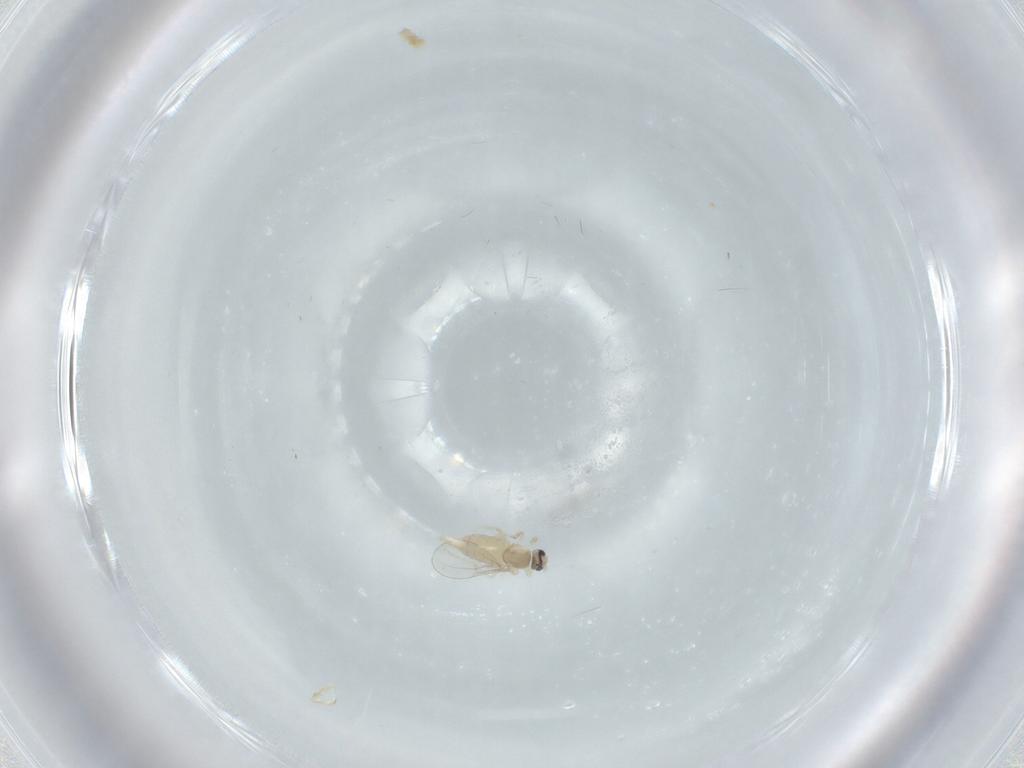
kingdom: Animalia
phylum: Arthropoda
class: Insecta
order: Diptera
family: Cecidomyiidae
